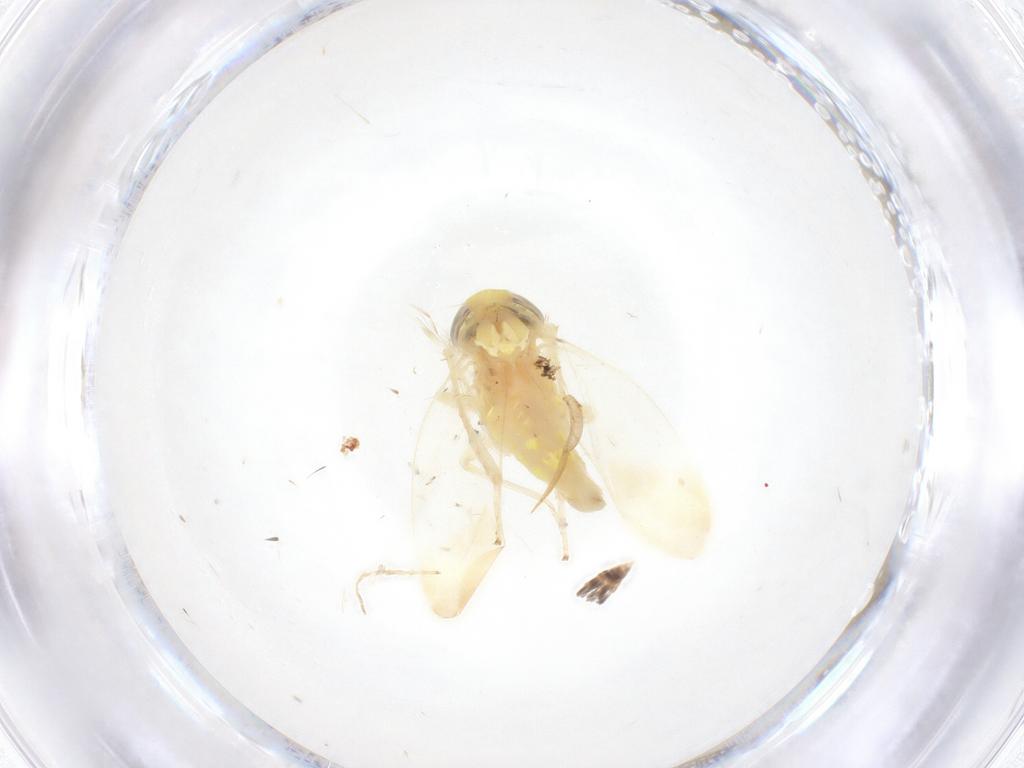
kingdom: Animalia
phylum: Arthropoda
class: Insecta
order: Hemiptera
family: Cicadellidae
